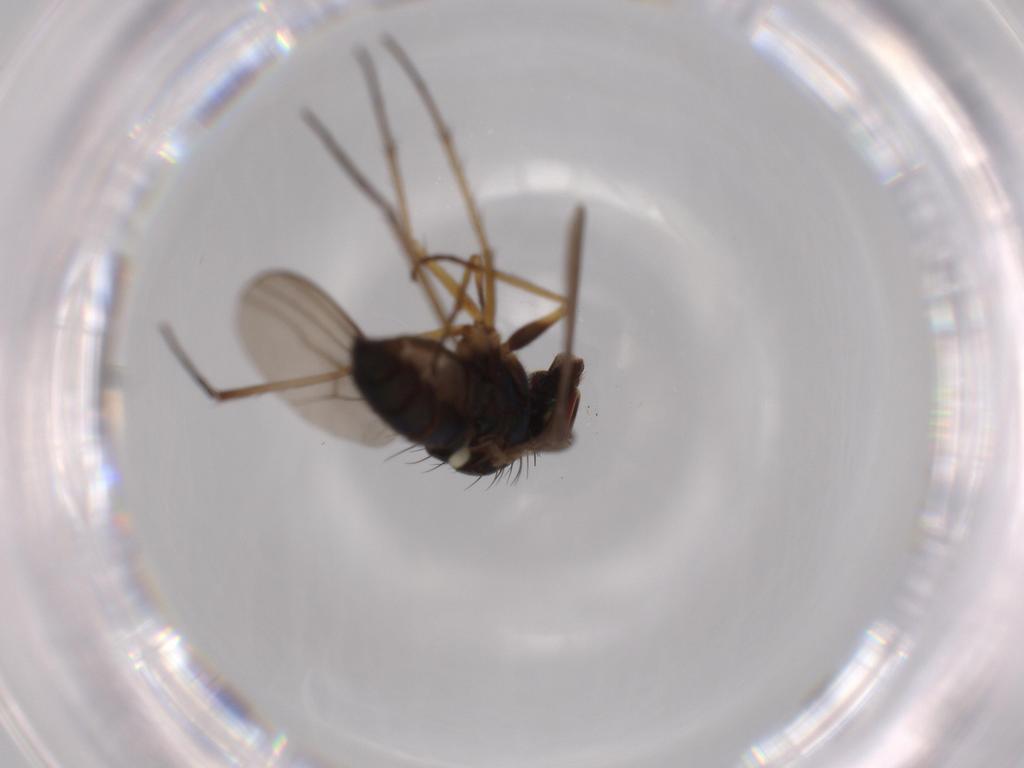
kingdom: Animalia
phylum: Arthropoda
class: Insecta
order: Diptera
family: Dolichopodidae
